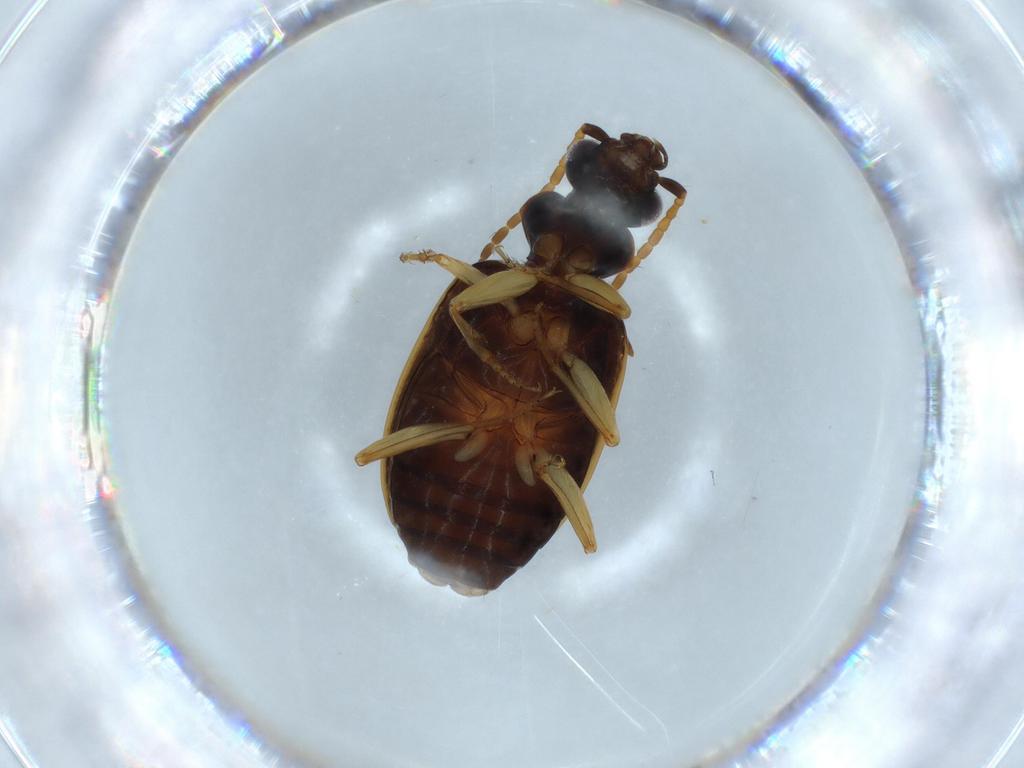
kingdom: Animalia
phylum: Arthropoda
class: Insecta
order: Coleoptera
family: Carabidae
